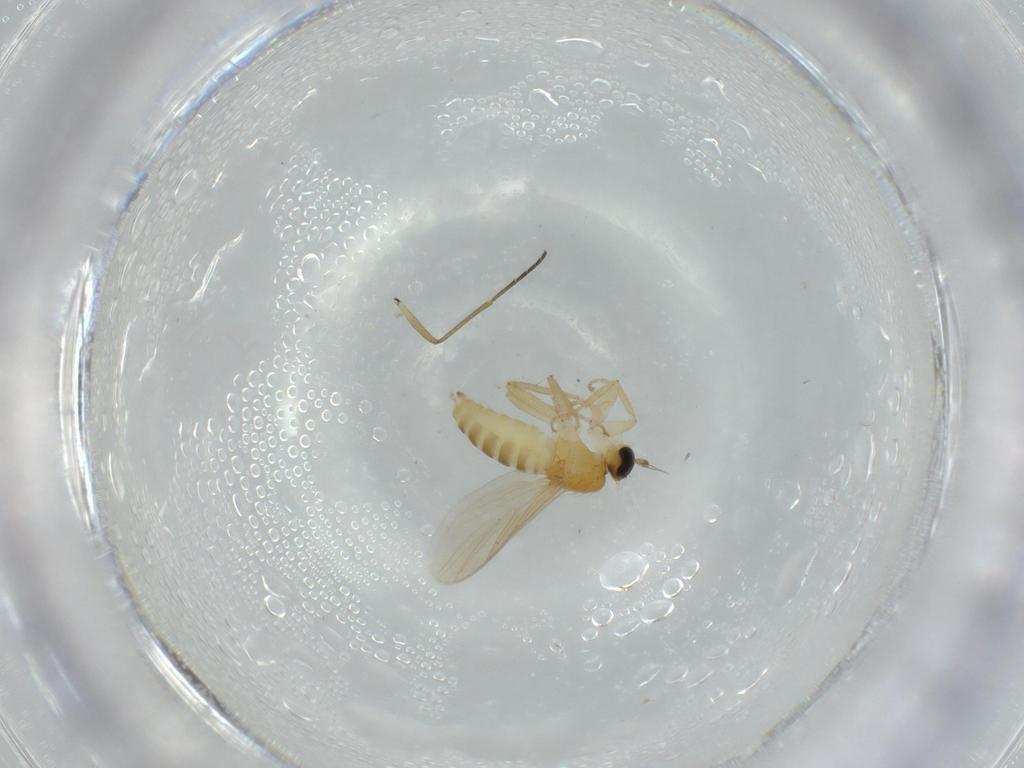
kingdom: Animalia
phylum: Arthropoda
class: Insecta
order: Diptera
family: Hybotidae
